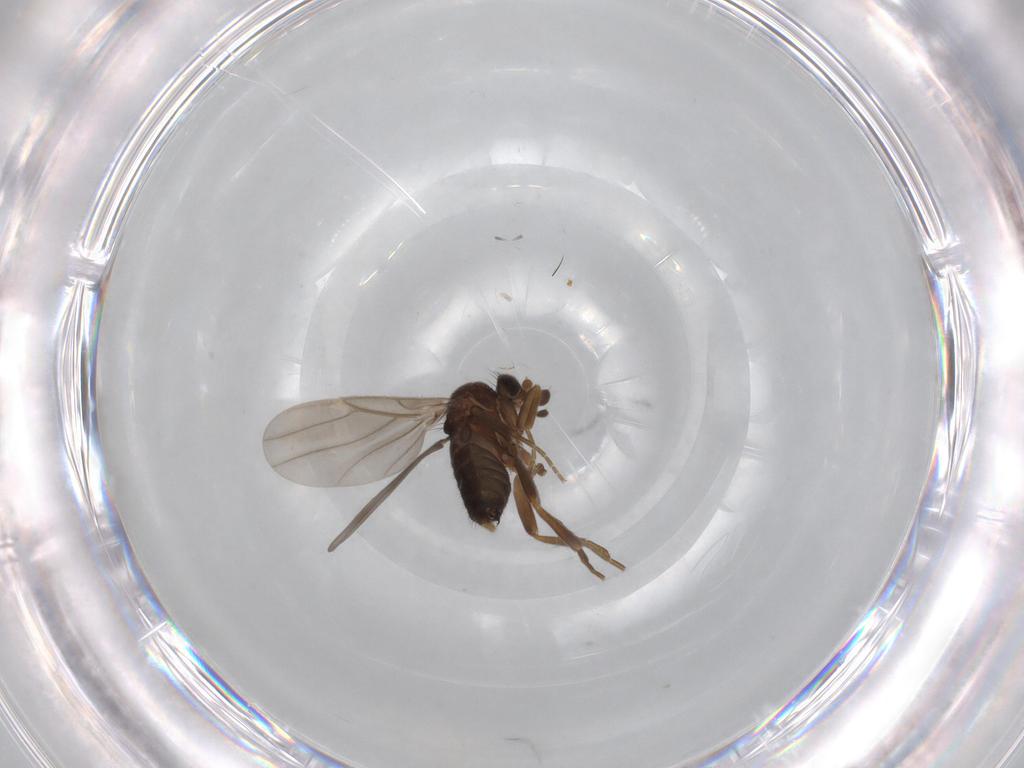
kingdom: Animalia
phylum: Arthropoda
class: Insecta
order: Diptera
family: Phoridae
